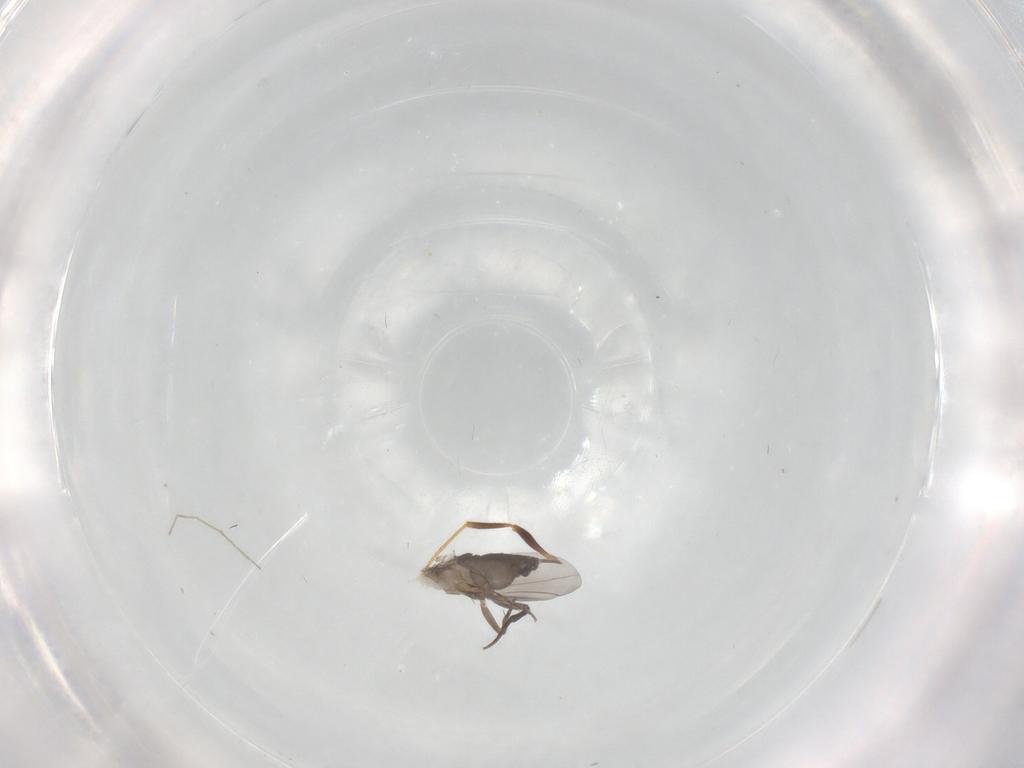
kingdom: Animalia
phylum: Arthropoda
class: Insecta
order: Diptera
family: Phoridae
